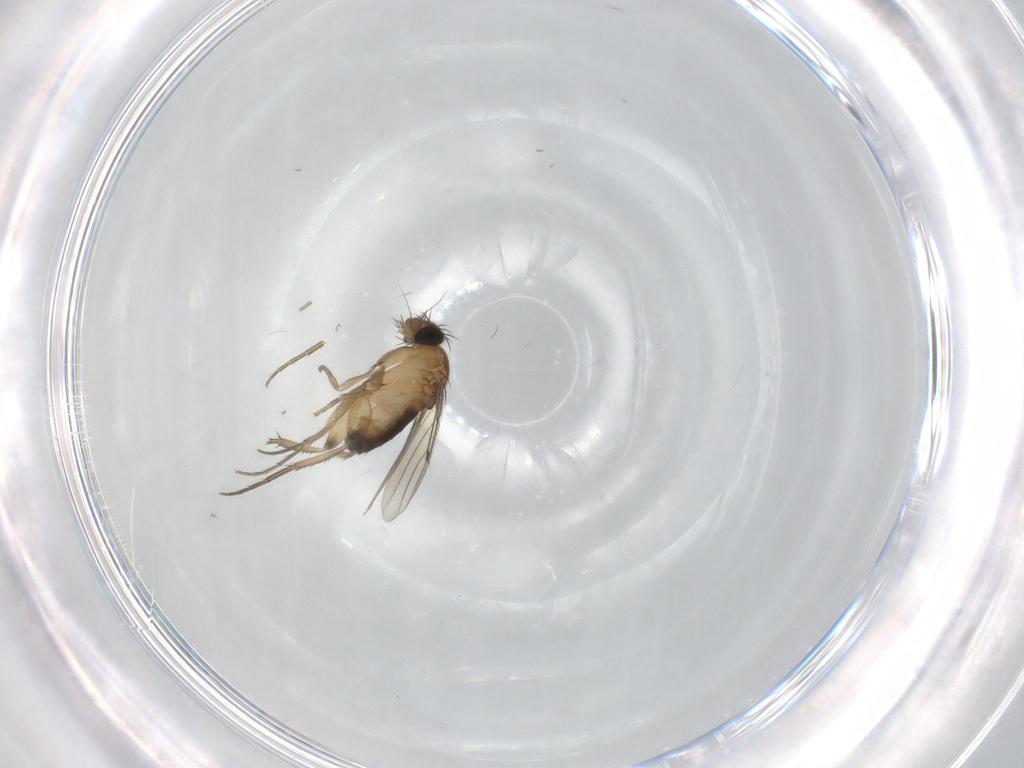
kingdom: Animalia
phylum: Arthropoda
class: Insecta
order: Diptera
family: Phoridae
